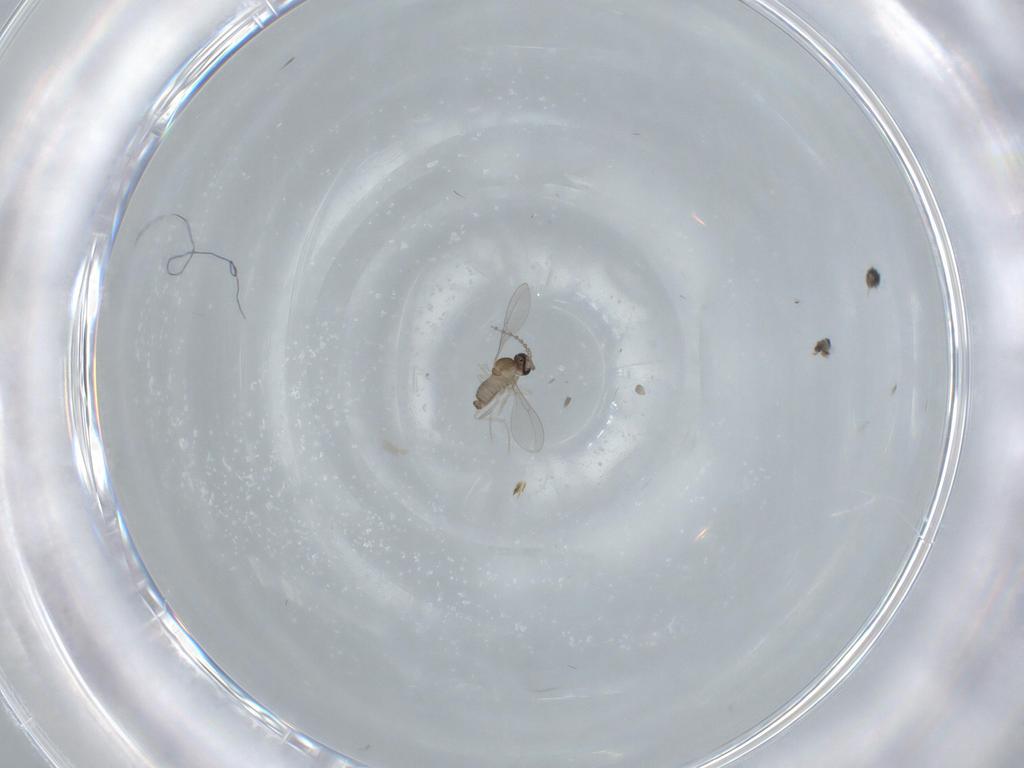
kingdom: Animalia
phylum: Arthropoda
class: Insecta
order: Diptera
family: Cecidomyiidae
